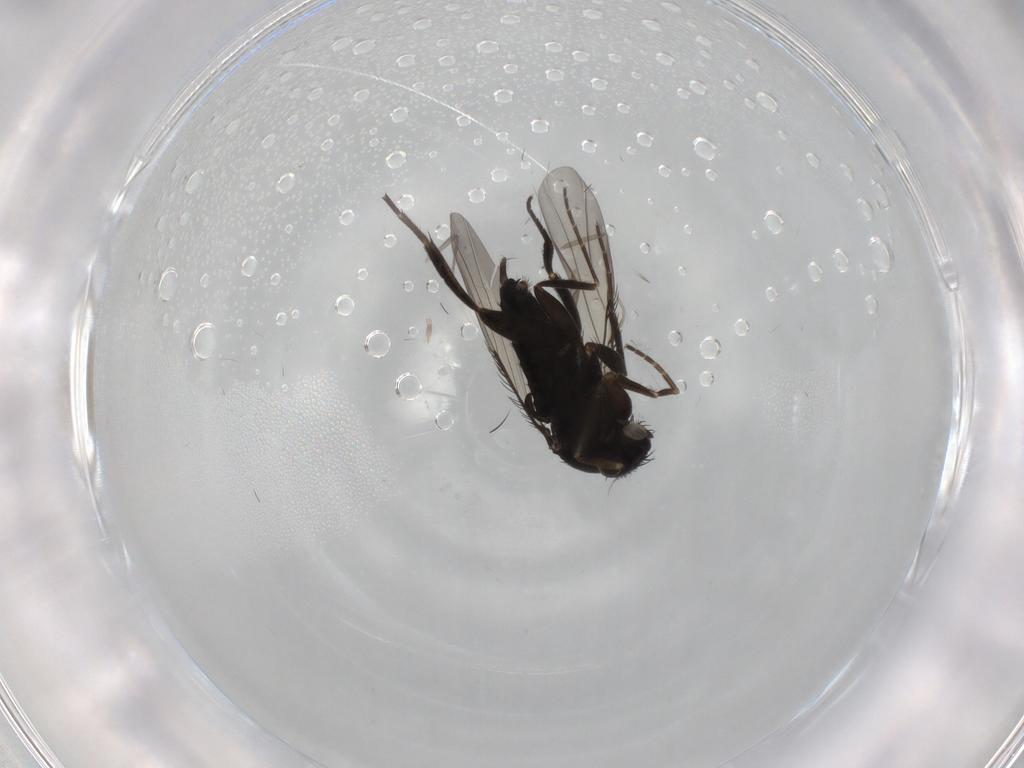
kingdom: Animalia
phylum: Arthropoda
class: Insecta
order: Diptera
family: Phoridae
